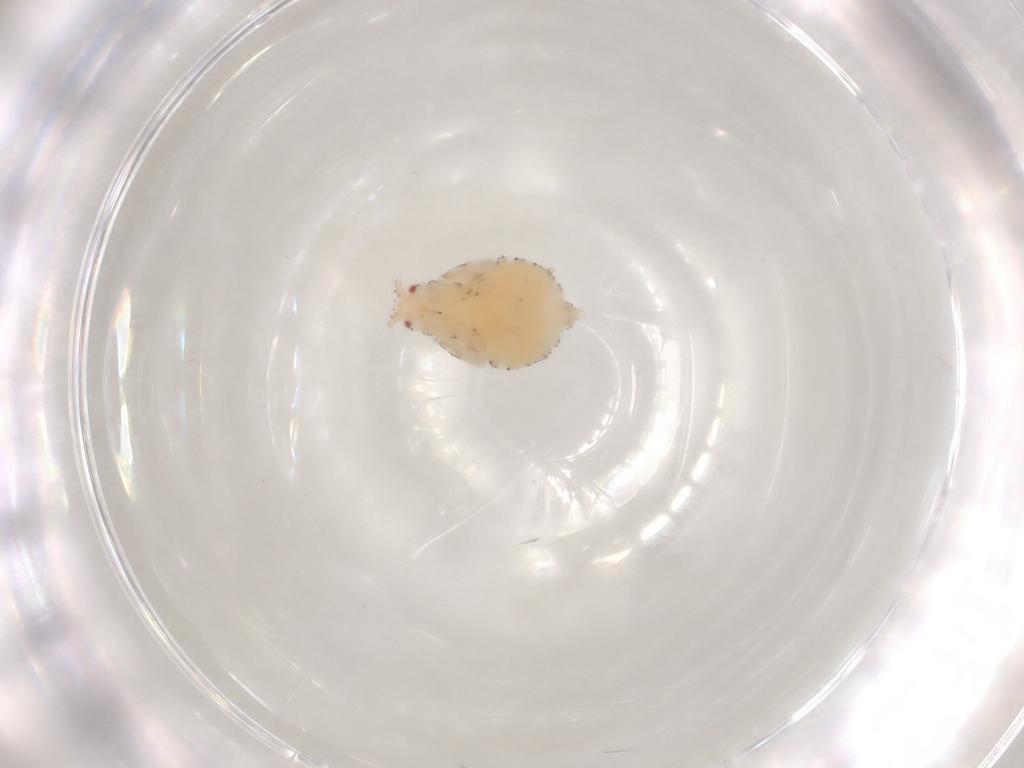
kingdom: Animalia
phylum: Arthropoda
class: Insecta
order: Hemiptera
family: Aphididae
